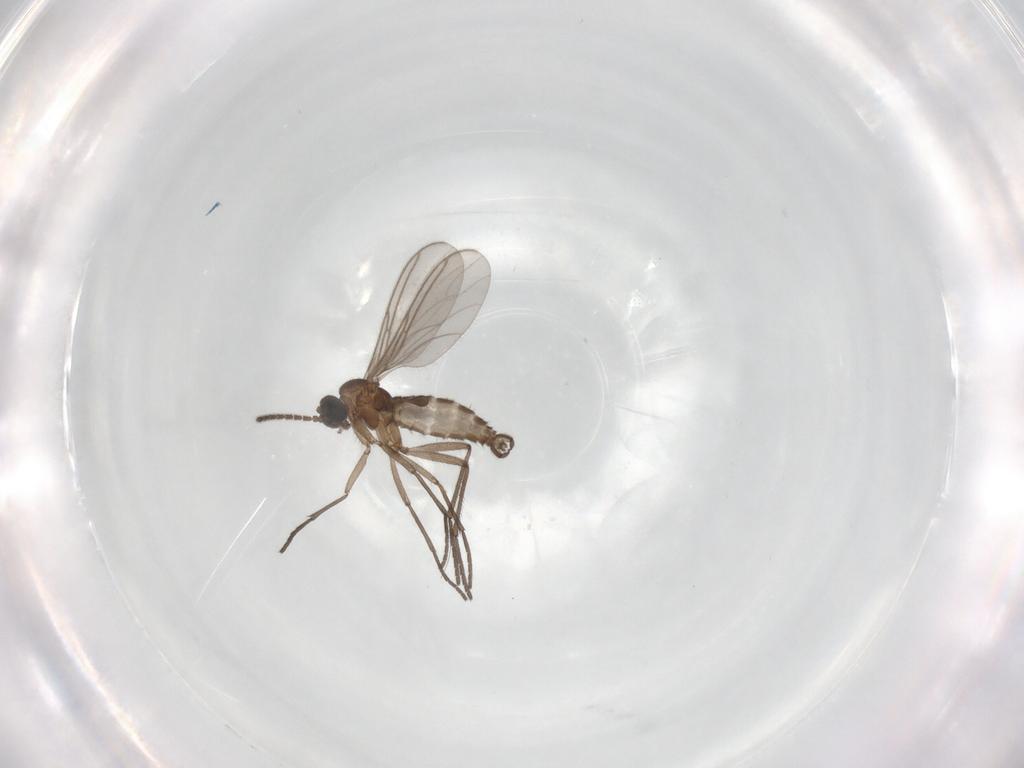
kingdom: Animalia
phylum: Arthropoda
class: Insecta
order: Diptera
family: Sciaridae
